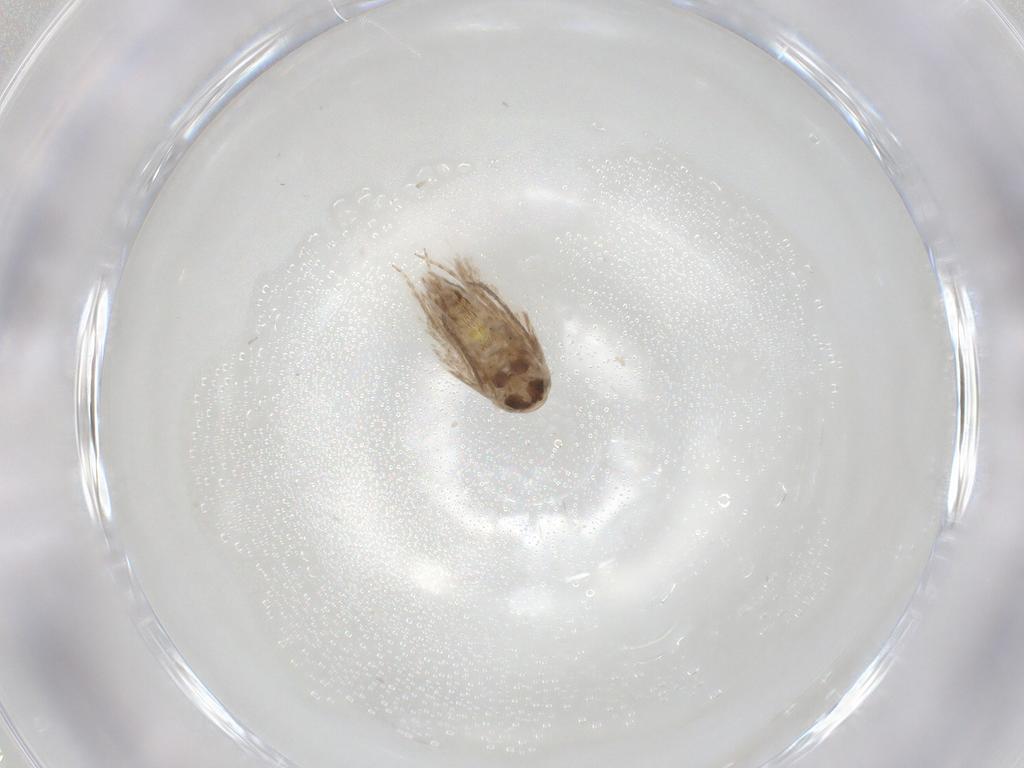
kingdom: Animalia
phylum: Arthropoda
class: Insecta
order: Lepidoptera
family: Depressariidae
